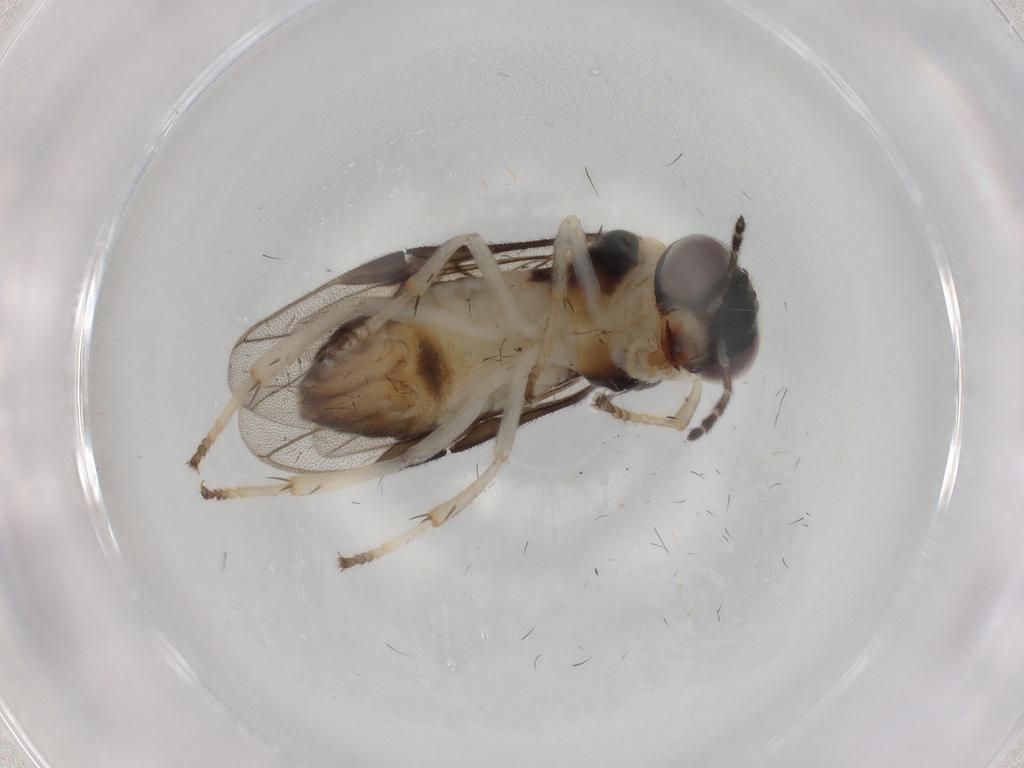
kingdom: Animalia
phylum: Arthropoda
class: Insecta
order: Hymenoptera
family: Pergidae
